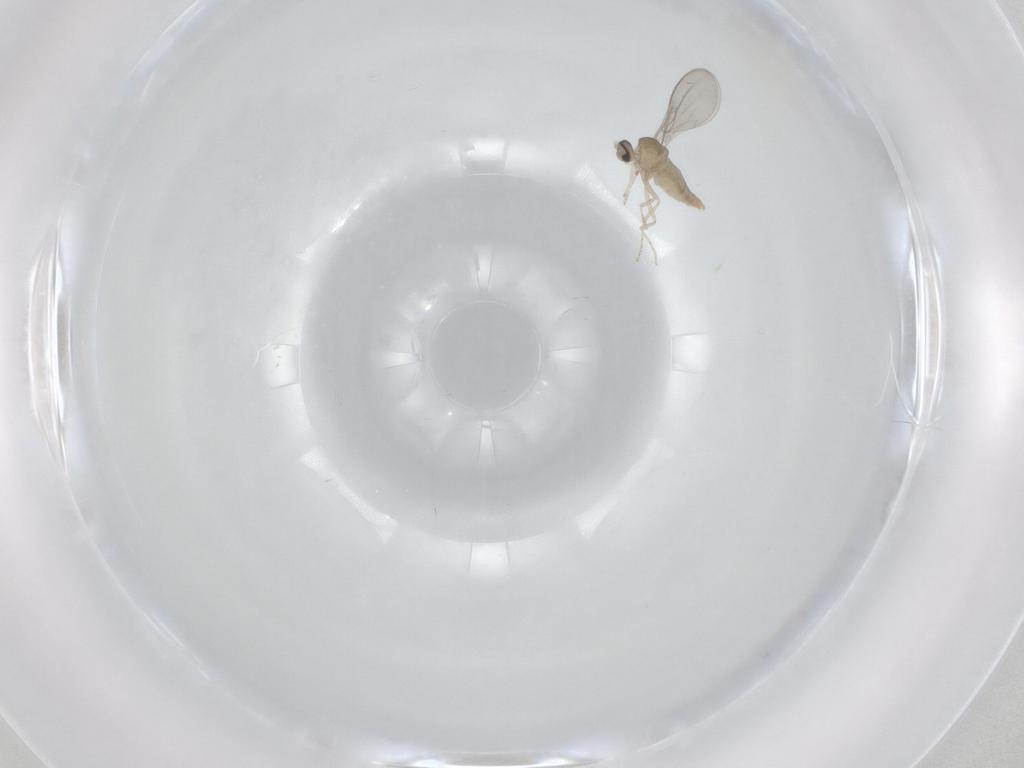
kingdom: Animalia
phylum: Arthropoda
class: Insecta
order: Diptera
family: Cecidomyiidae
